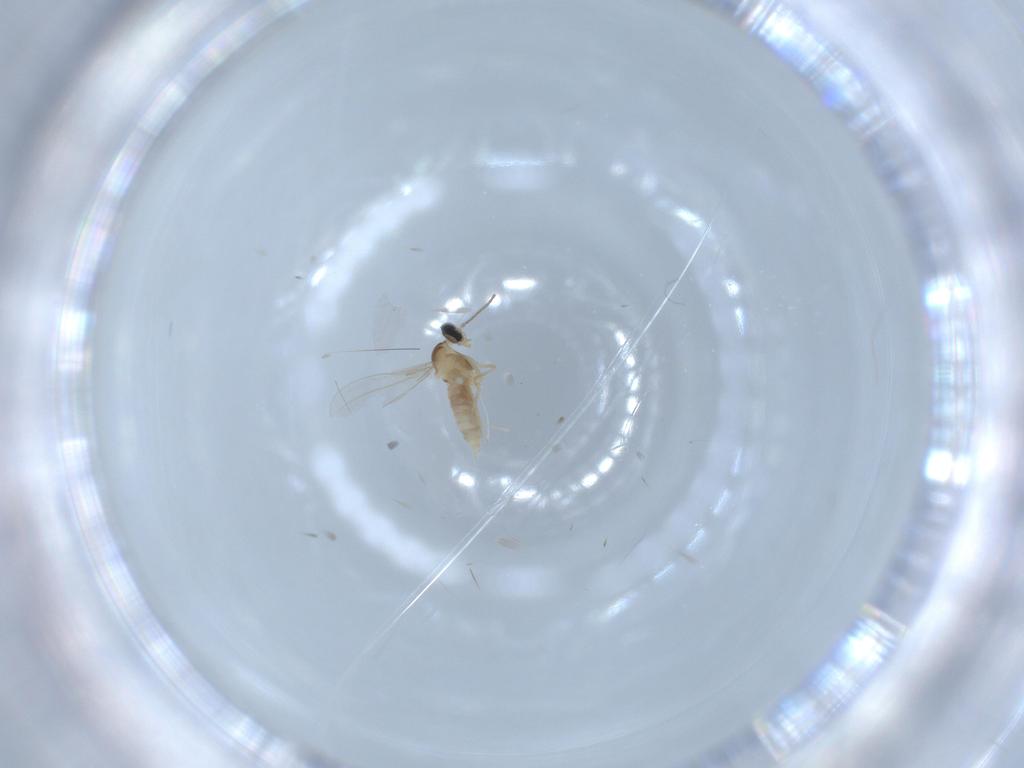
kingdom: Animalia
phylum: Arthropoda
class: Insecta
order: Diptera
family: Cecidomyiidae
